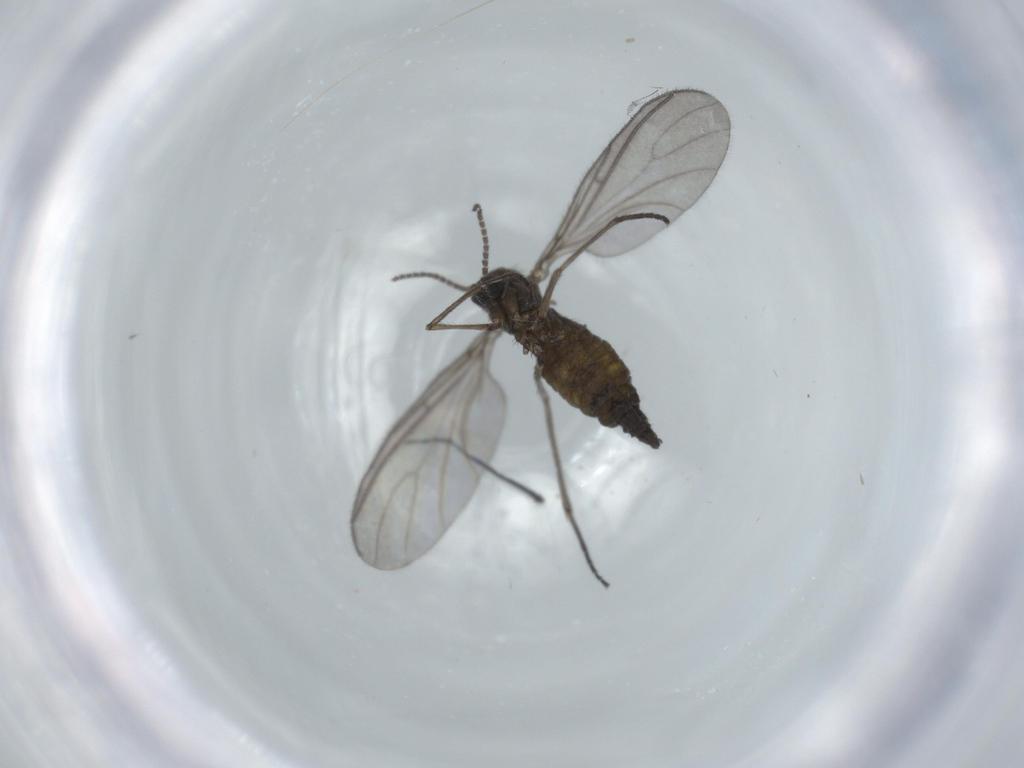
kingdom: Animalia
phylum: Arthropoda
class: Insecta
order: Diptera
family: Sciaridae
